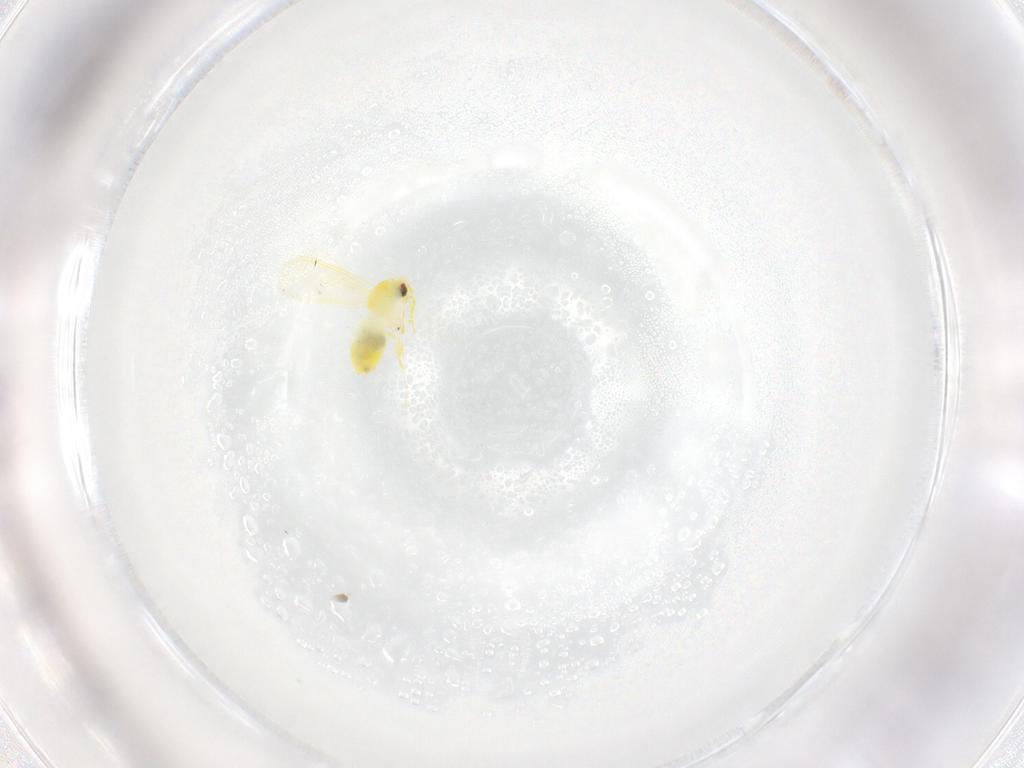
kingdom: Animalia
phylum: Arthropoda
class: Insecta
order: Hemiptera
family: Aleyrodidae
